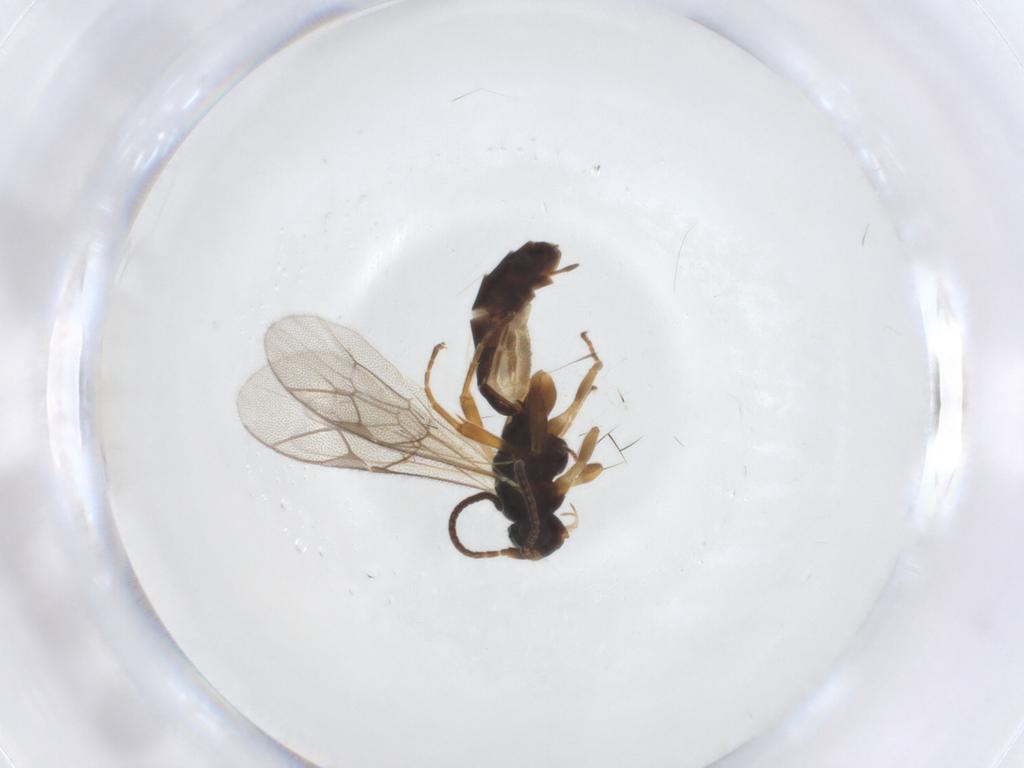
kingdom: Animalia
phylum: Arthropoda
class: Insecta
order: Hymenoptera
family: Ichneumonidae
